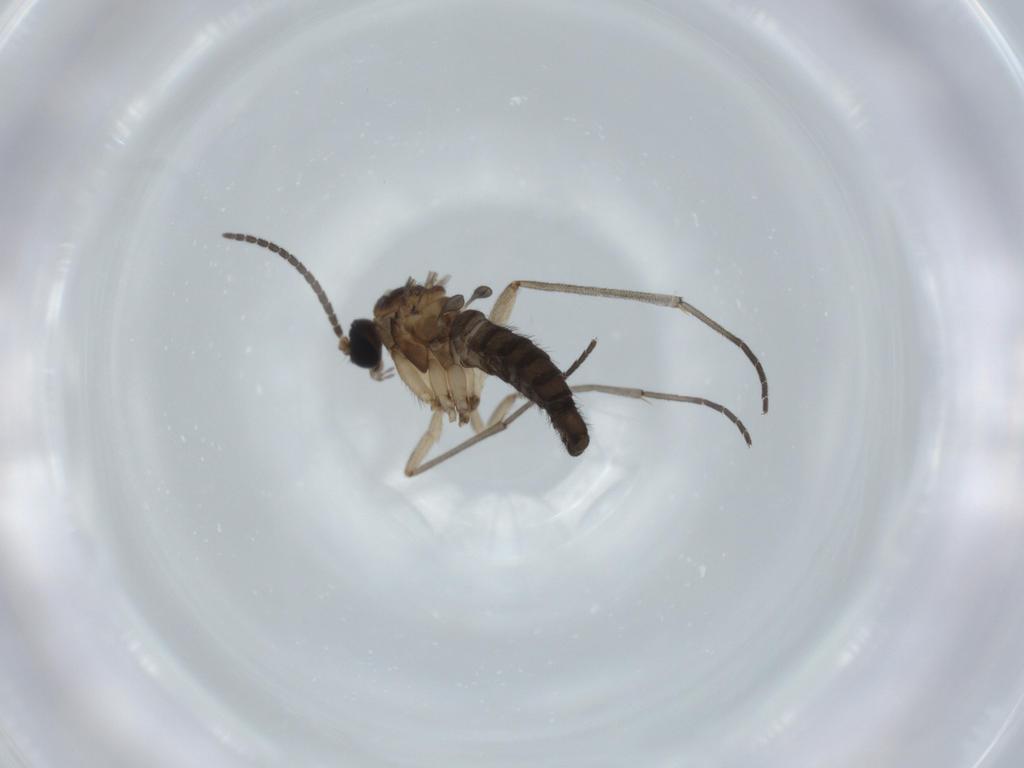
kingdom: Animalia
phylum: Arthropoda
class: Insecta
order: Diptera
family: Sciaridae
